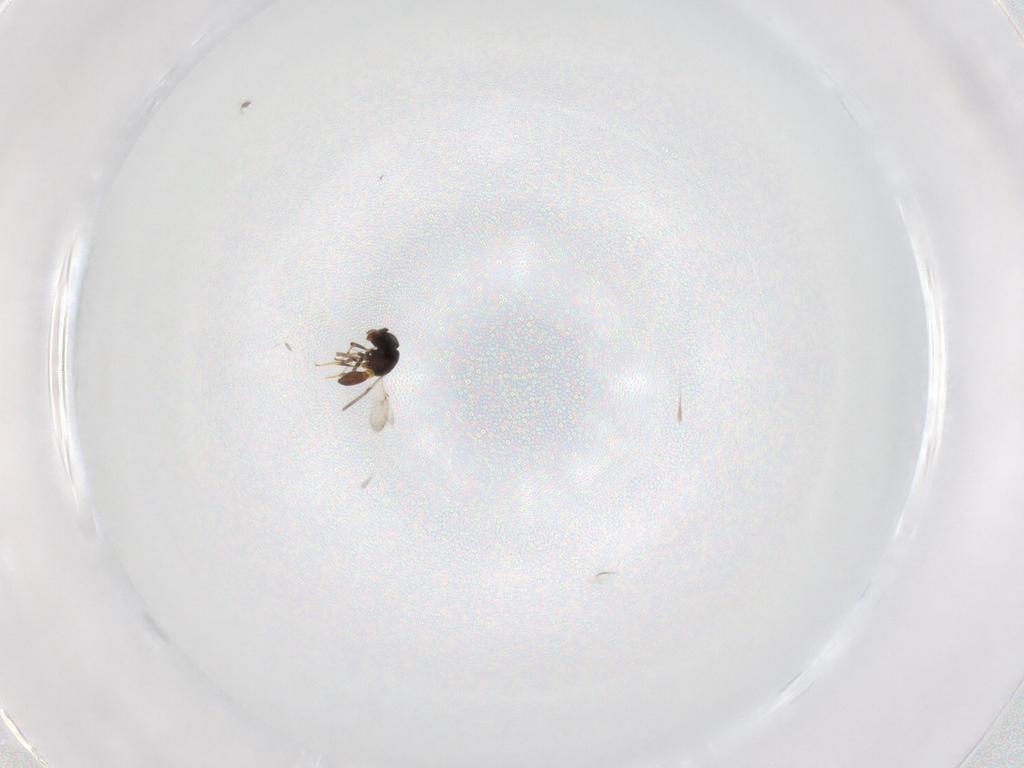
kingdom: Animalia
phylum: Arthropoda
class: Insecta
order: Hymenoptera
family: Scelionidae
